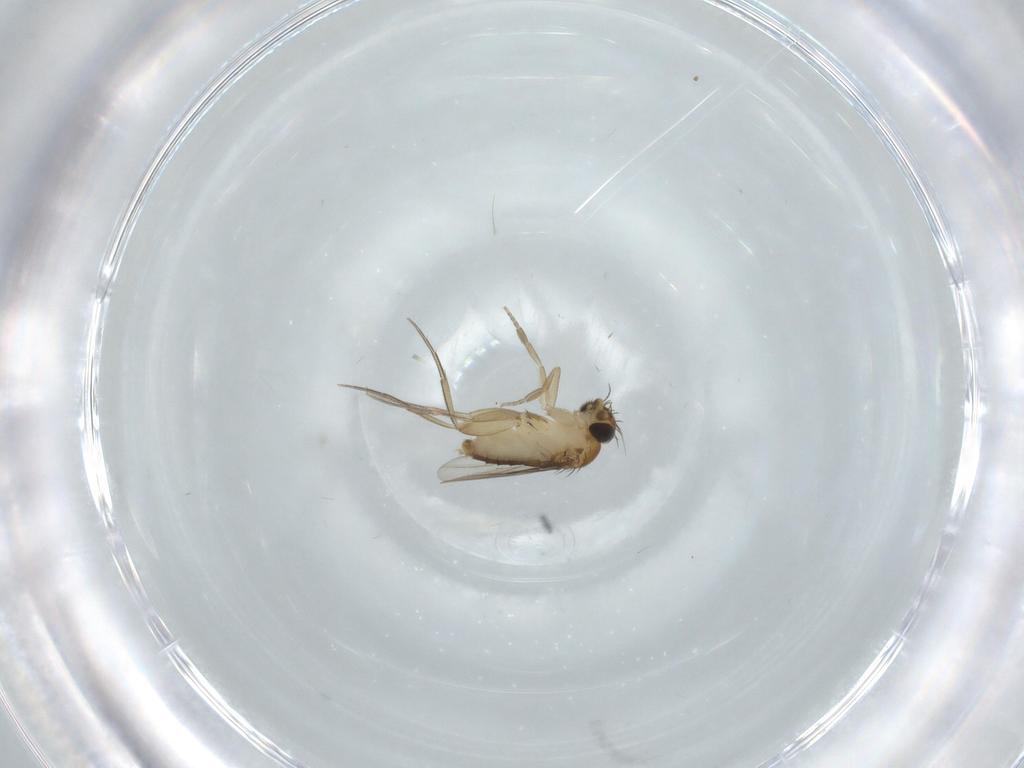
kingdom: Animalia
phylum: Arthropoda
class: Insecta
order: Diptera
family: Phoridae
